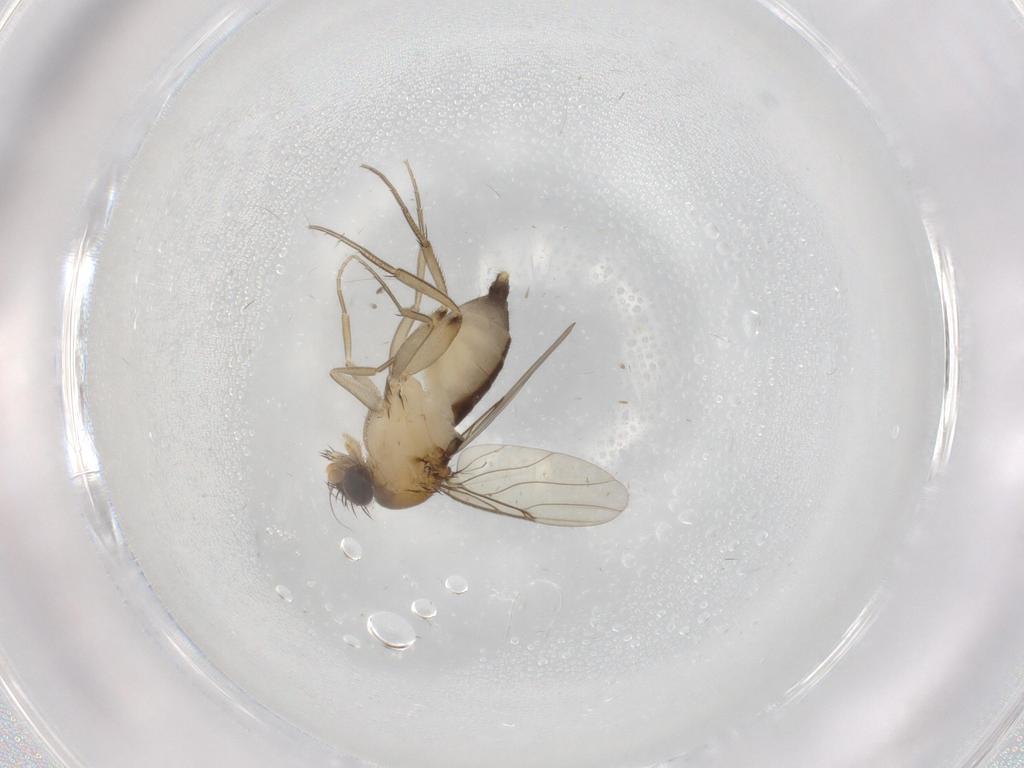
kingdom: Animalia
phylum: Arthropoda
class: Insecta
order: Diptera
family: Phoridae
